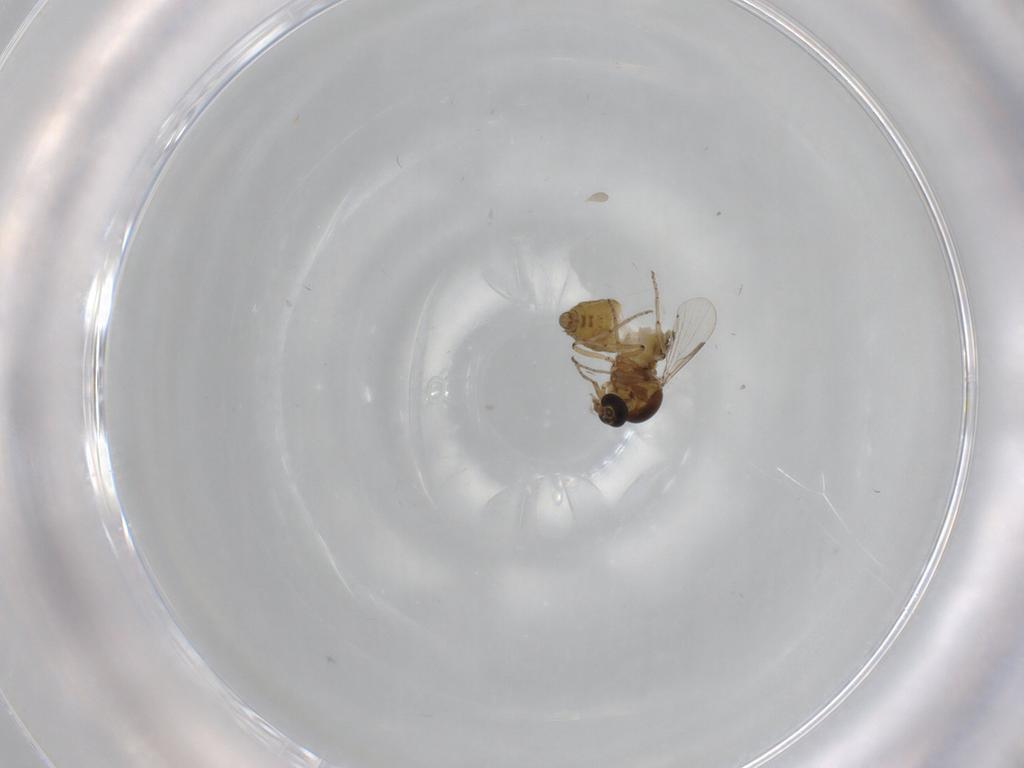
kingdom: Animalia
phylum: Arthropoda
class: Insecta
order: Diptera
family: Ceratopogonidae
